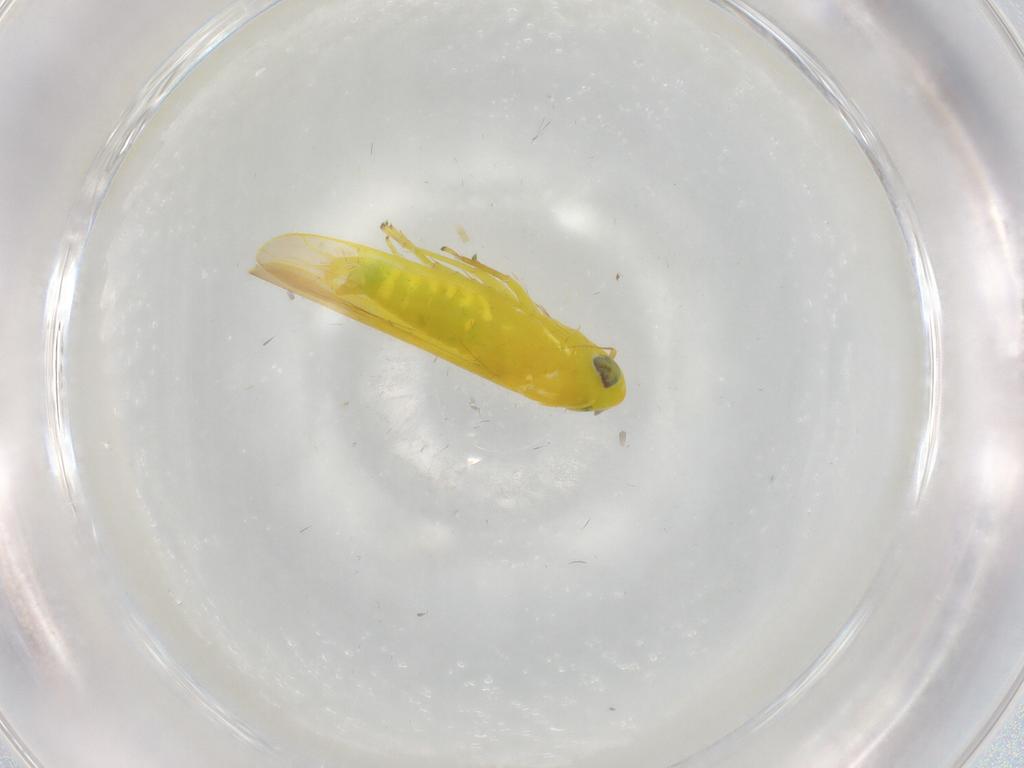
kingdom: Animalia
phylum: Arthropoda
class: Insecta
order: Hemiptera
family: Cicadellidae
